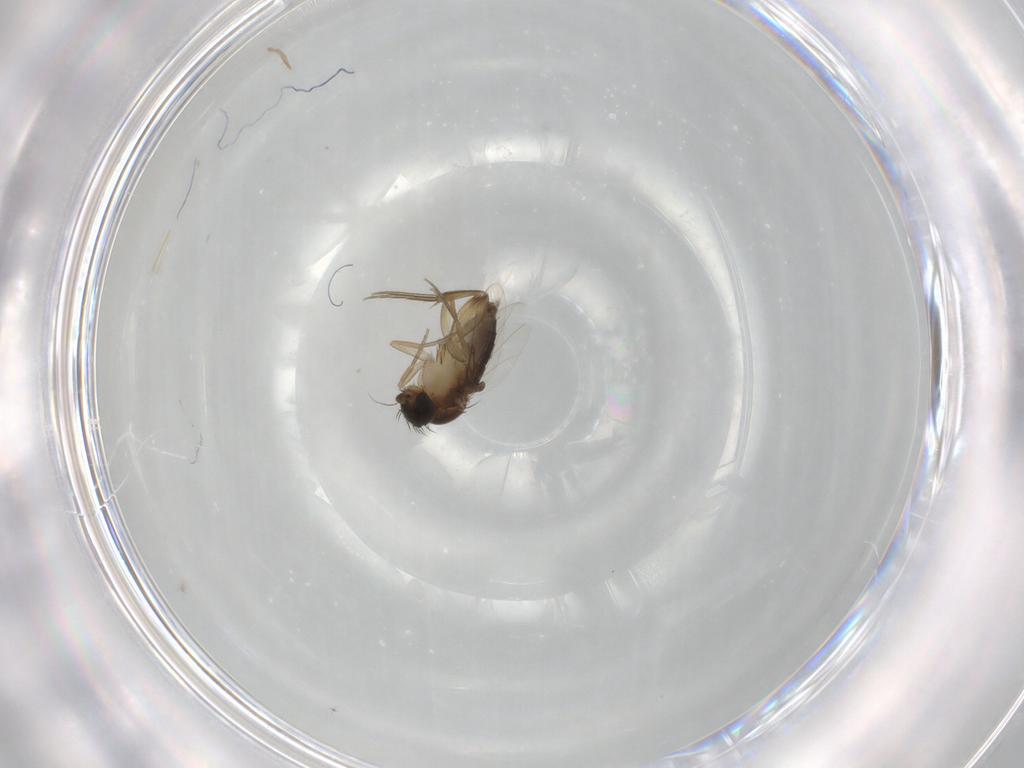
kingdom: Animalia
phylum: Arthropoda
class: Insecta
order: Diptera
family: Phoridae
